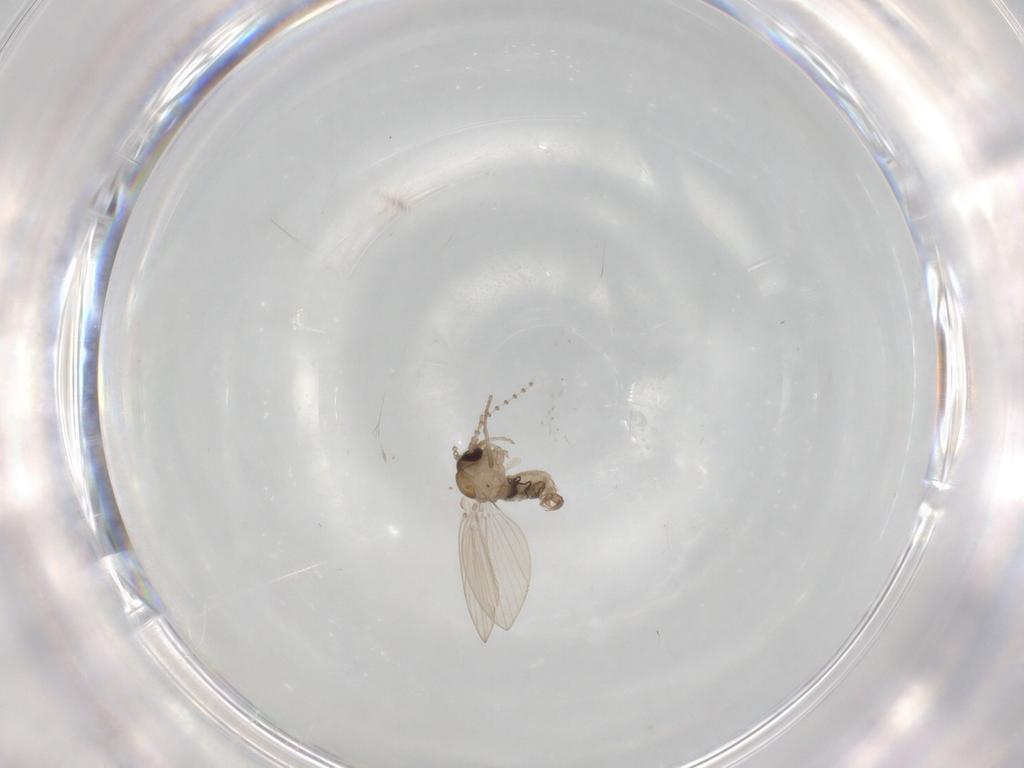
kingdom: Animalia
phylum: Arthropoda
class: Insecta
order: Diptera
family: Psychodidae
